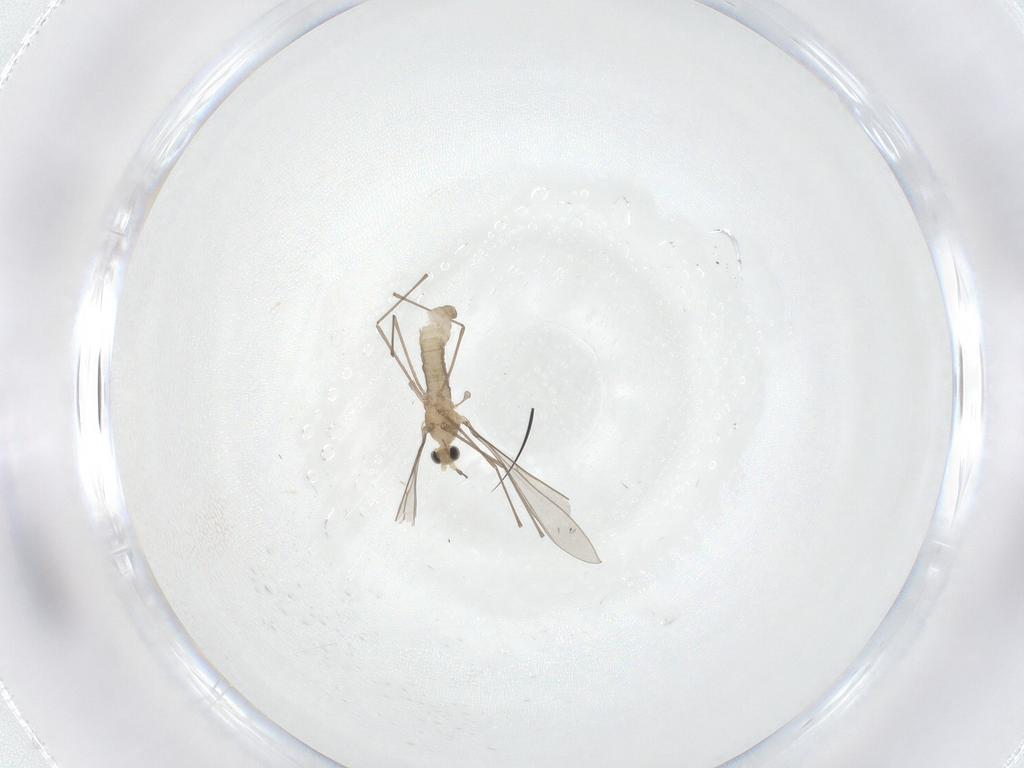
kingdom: Animalia
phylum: Arthropoda
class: Insecta
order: Diptera
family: Cecidomyiidae
